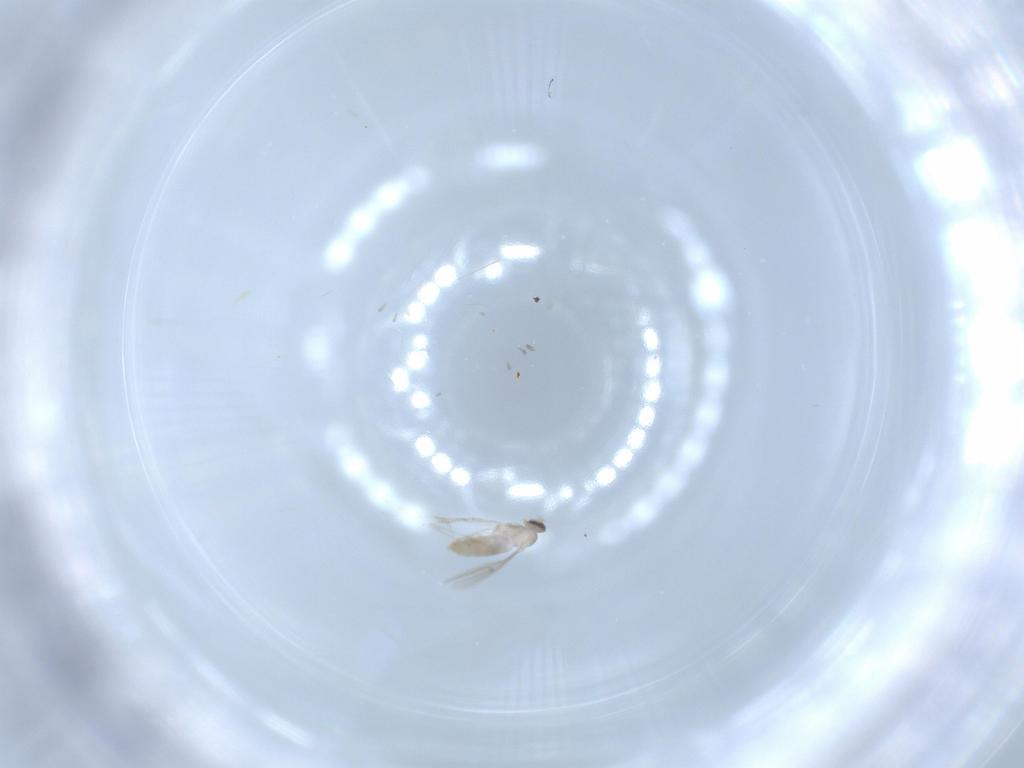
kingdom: Animalia
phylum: Arthropoda
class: Insecta
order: Diptera
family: Cecidomyiidae
